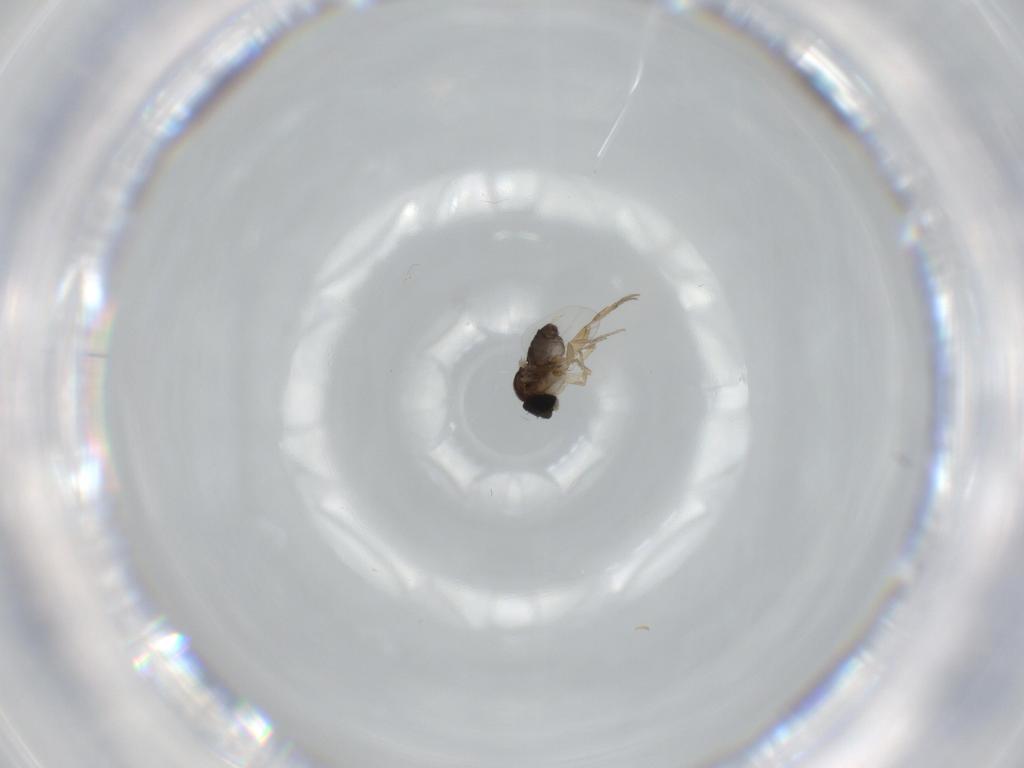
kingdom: Animalia
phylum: Arthropoda
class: Insecta
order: Diptera
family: Phoridae
